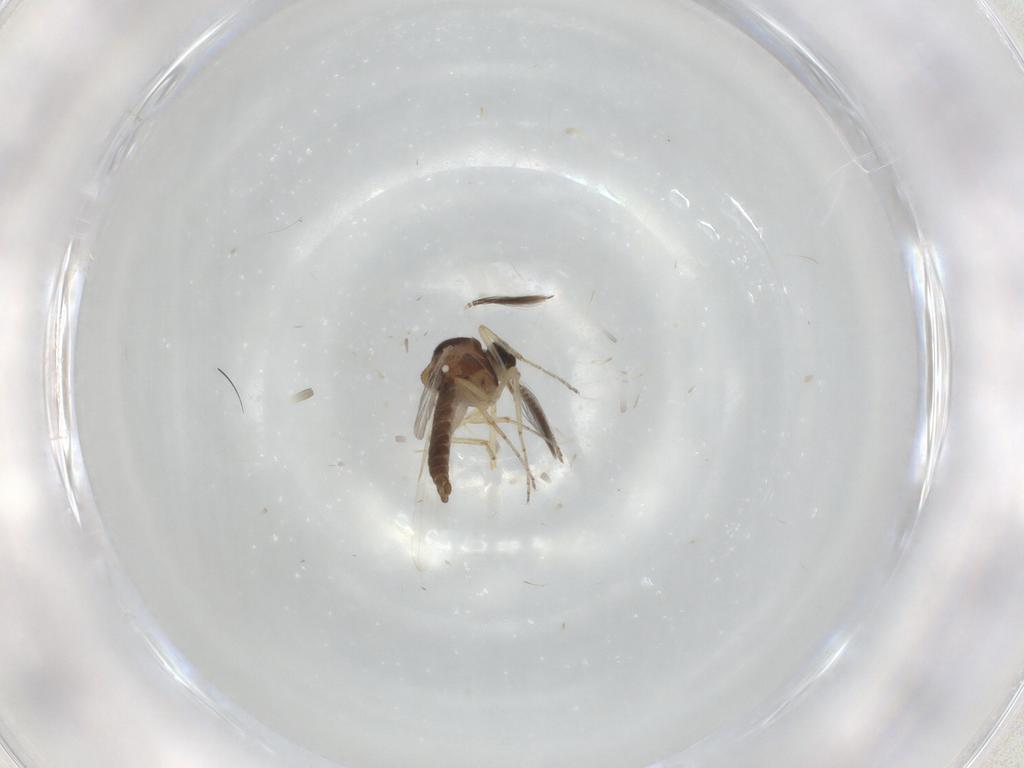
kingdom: Animalia
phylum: Arthropoda
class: Insecta
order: Diptera
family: Ceratopogonidae
